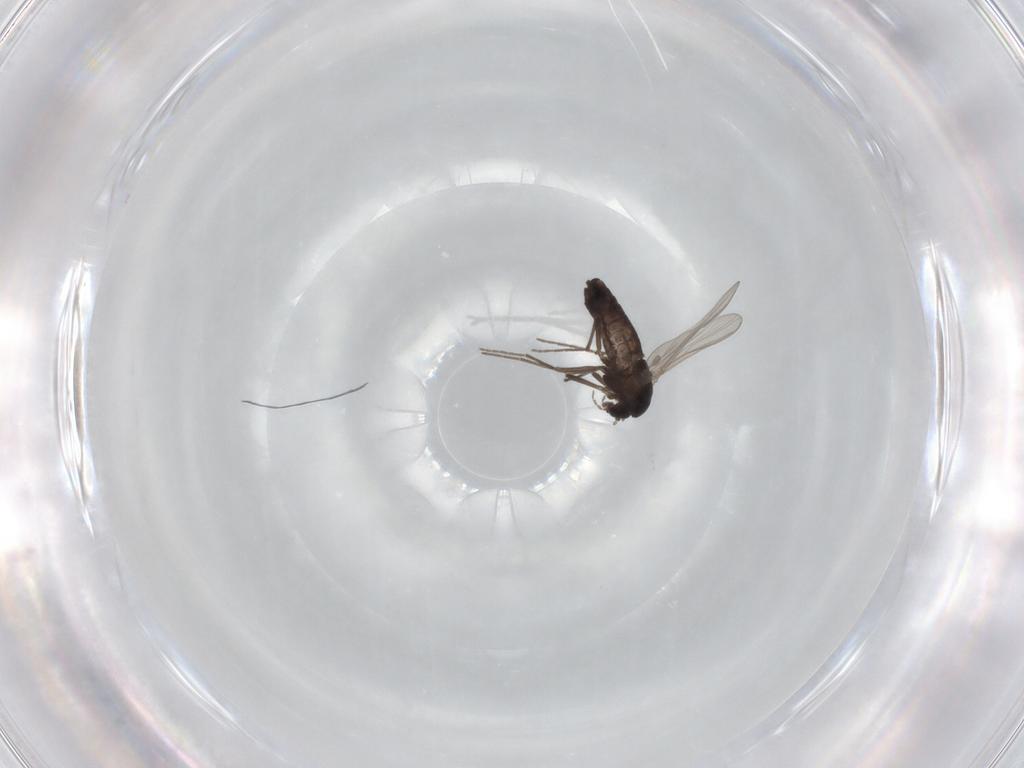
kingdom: Animalia
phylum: Arthropoda
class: Insecta
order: Diptera
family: Chironomidae
